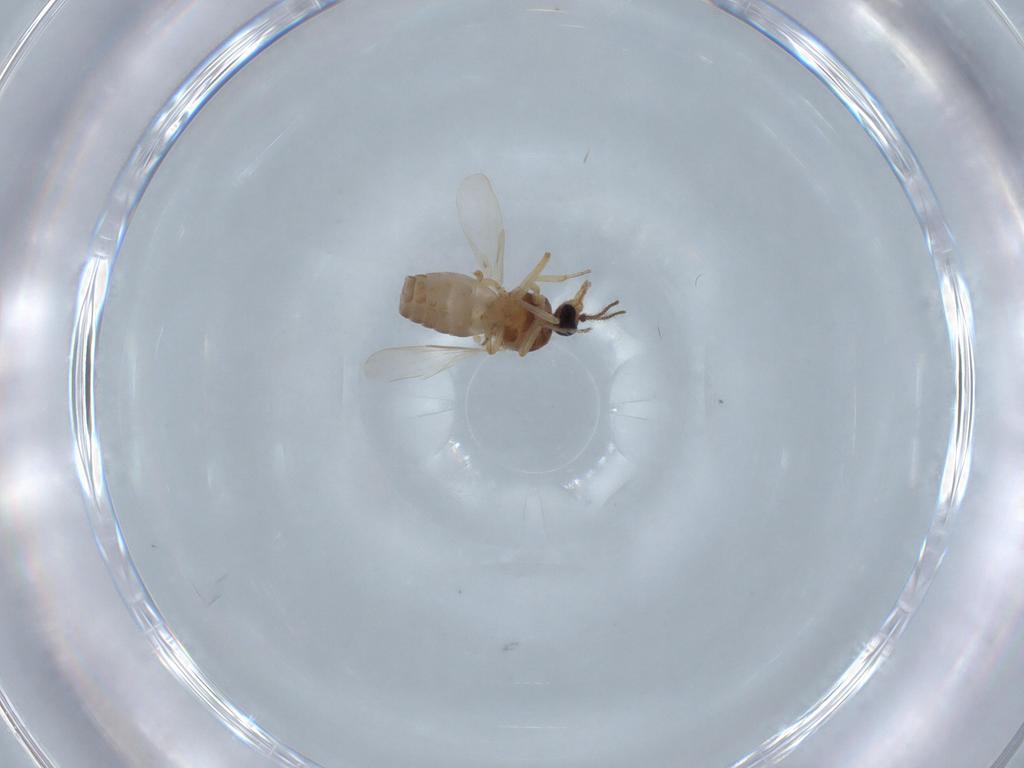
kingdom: Animalia
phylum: Arthropoda
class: Insecta
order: Diptera
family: Ceratopogonidae
